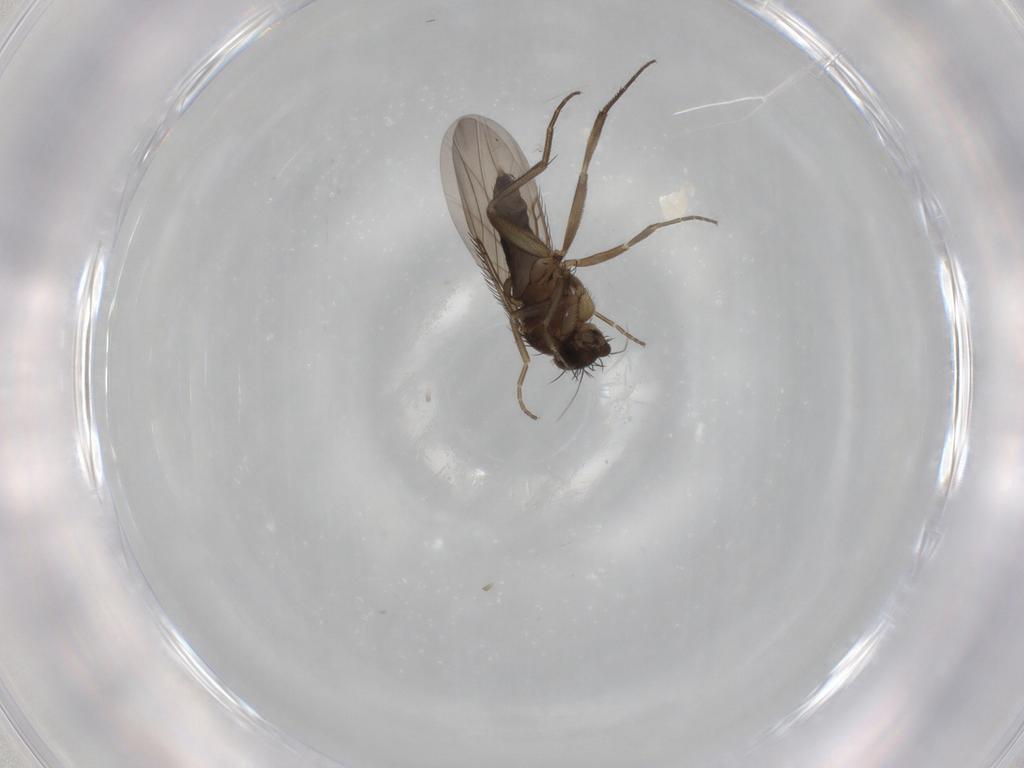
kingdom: Animalia
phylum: Arthropoda
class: Insecta
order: Diptera
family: Phoridae
